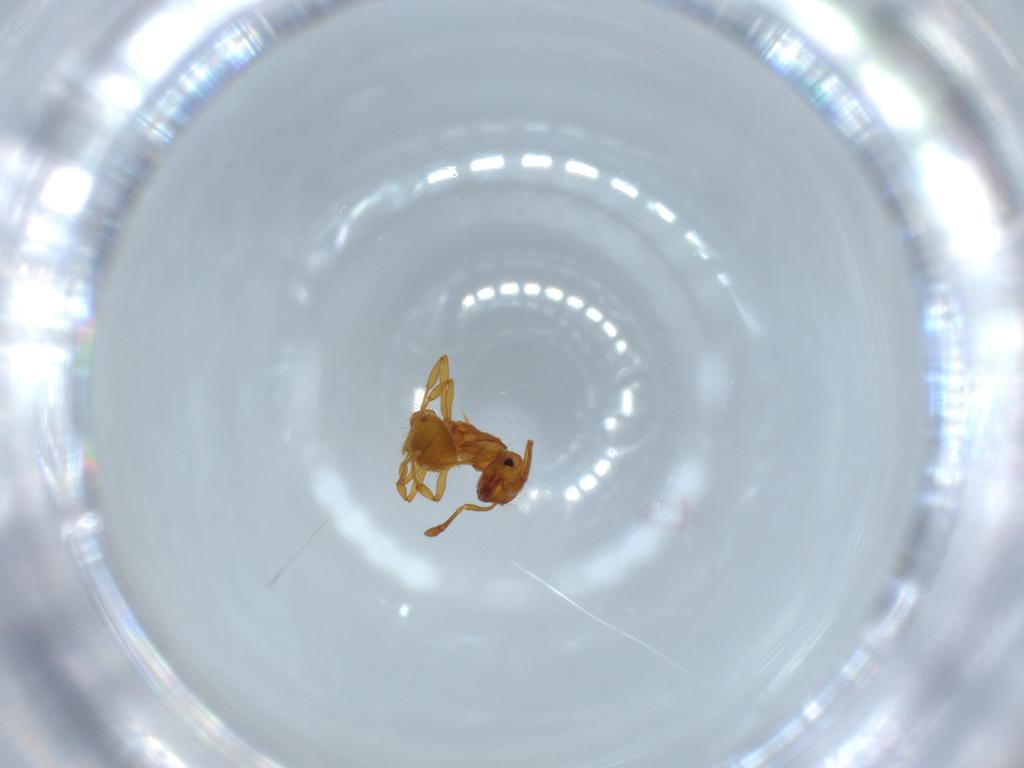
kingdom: Animalia
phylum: Arthropoda
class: Insecta
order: Hymenoptera
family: Formicidae
